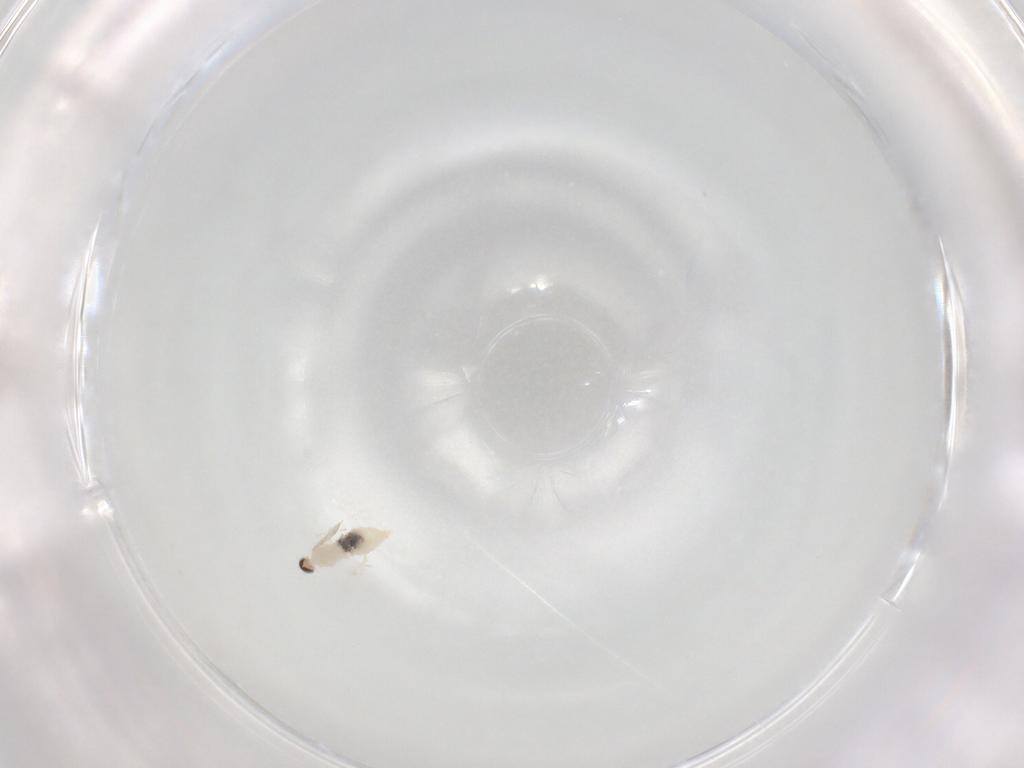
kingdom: Animalia
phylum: Arthropoda
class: Insecta
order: Diptera
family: Cecidomyiidae
